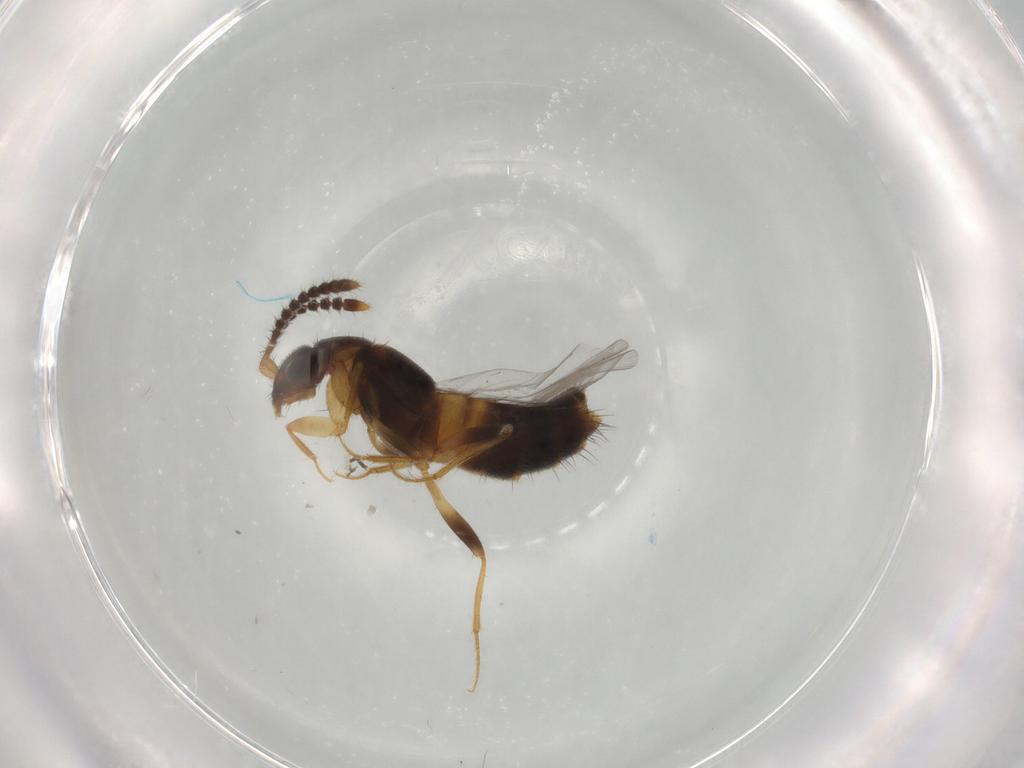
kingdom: Animalia
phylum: Arthropoda
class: Insecta
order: Coleoptera
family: Staphylinidae
